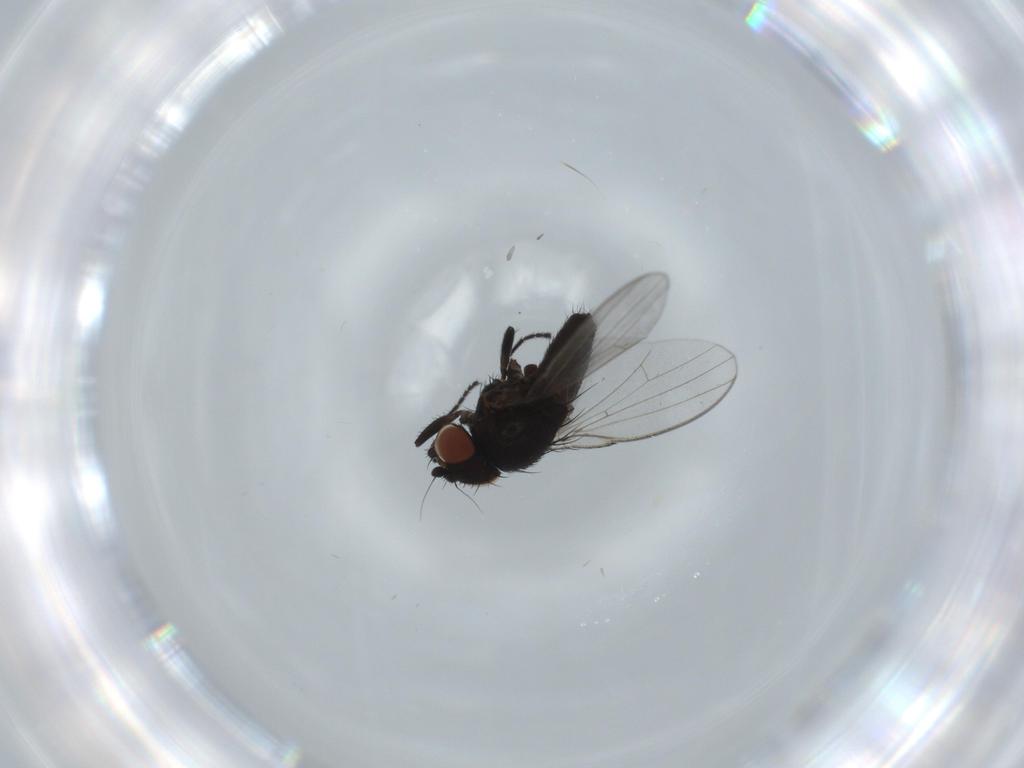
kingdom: Animalia
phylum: Arthropoda
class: Insecta
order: Diptera
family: Milichiidae
